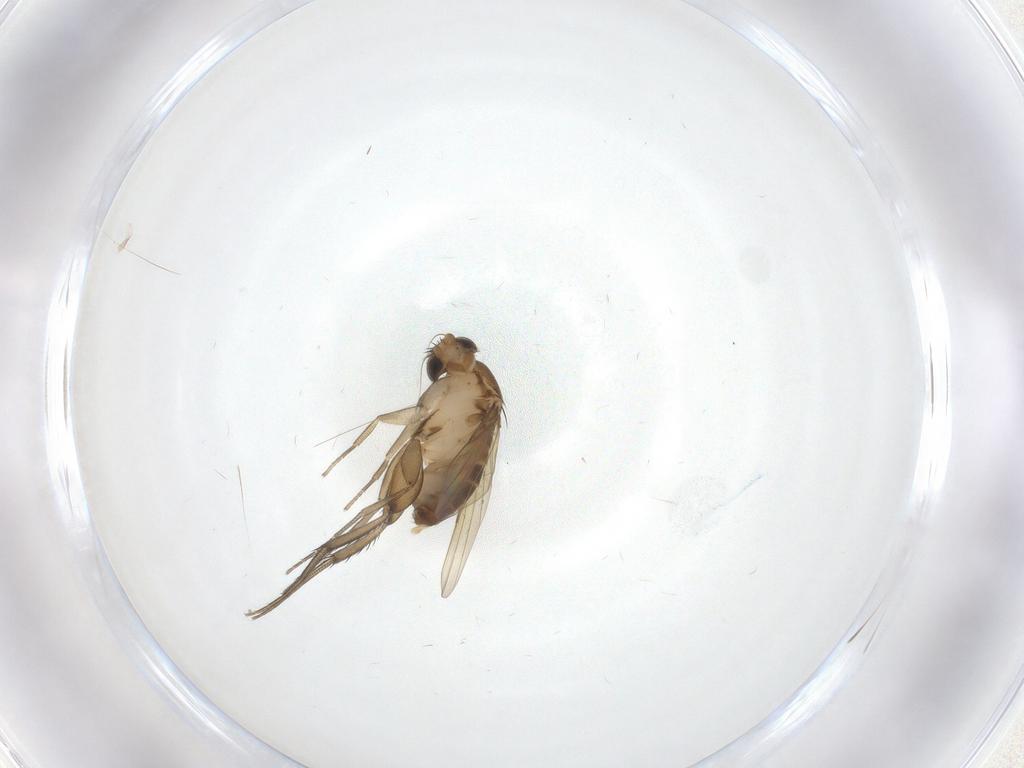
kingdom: Animalia
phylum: Arthropoda
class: Insecta
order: Diptera
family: Phoridae
